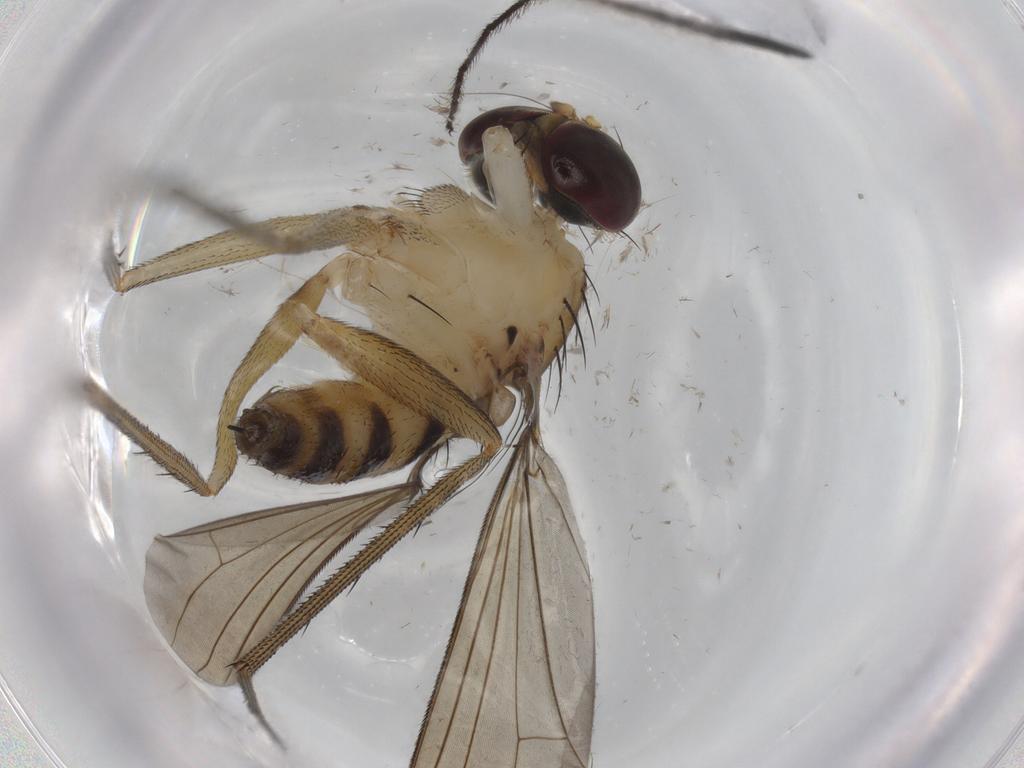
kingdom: Animalia
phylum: Arthropoda
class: Insecta
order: Diptera
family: Dolichopodidae
